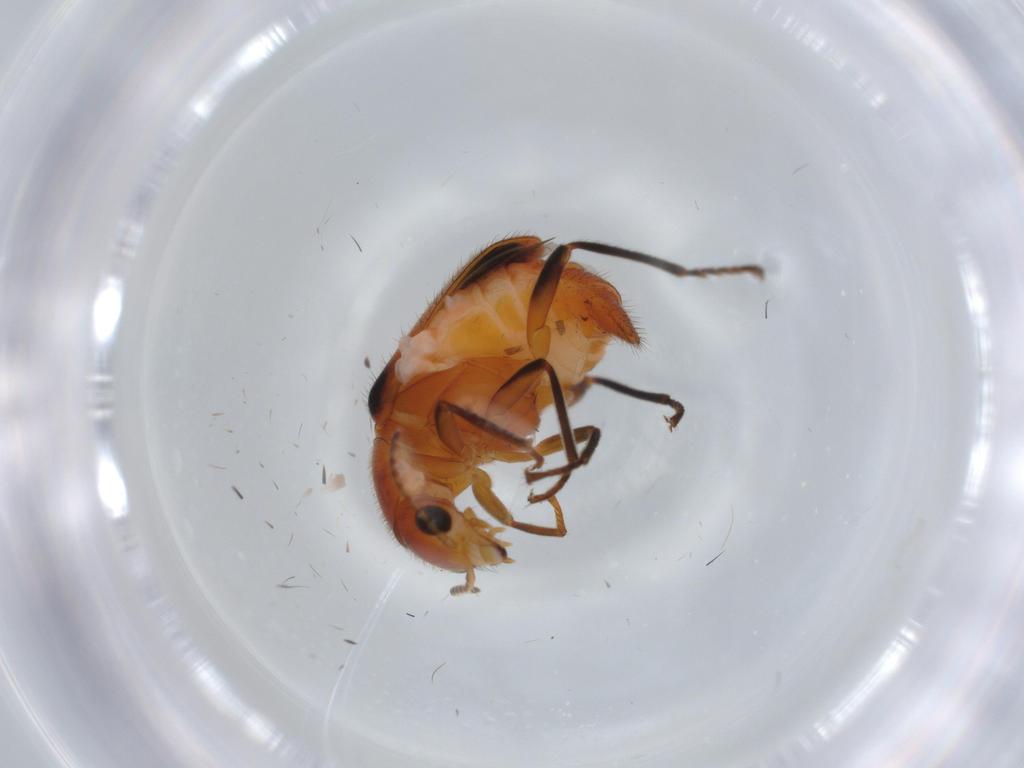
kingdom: Animalia
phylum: Arthropoda
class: Insecta
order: Coleoptera
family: Melyridae
